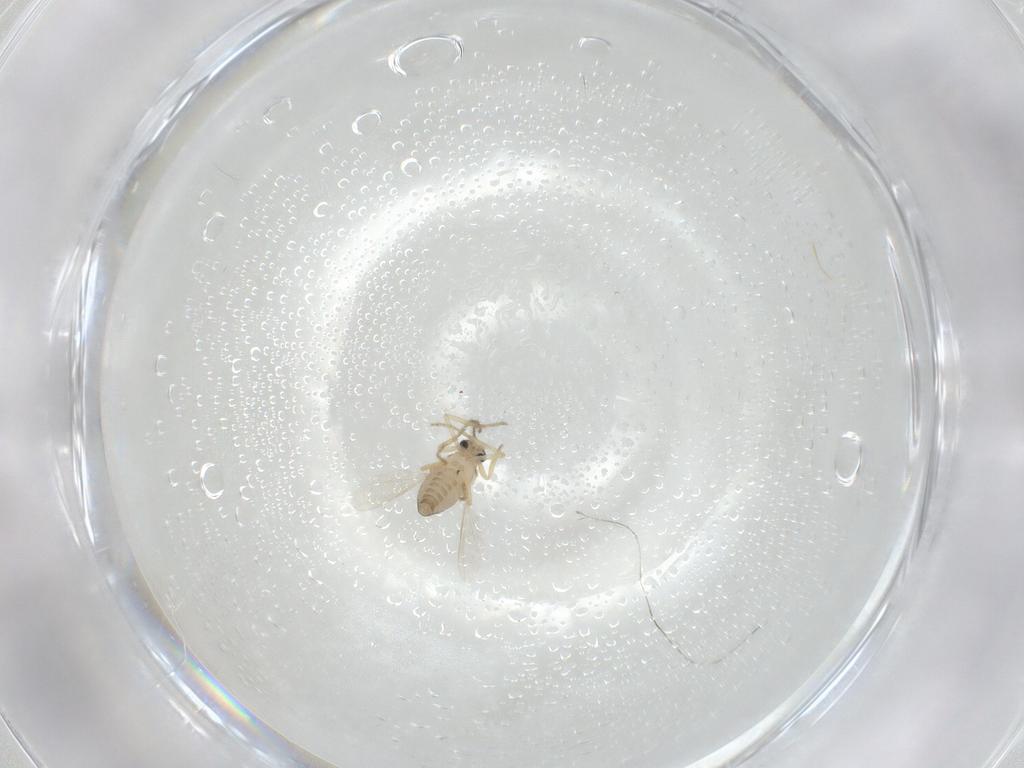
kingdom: Animalia
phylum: Arthropoda
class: Insecta
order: Diptera
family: Ceratopogonidae
